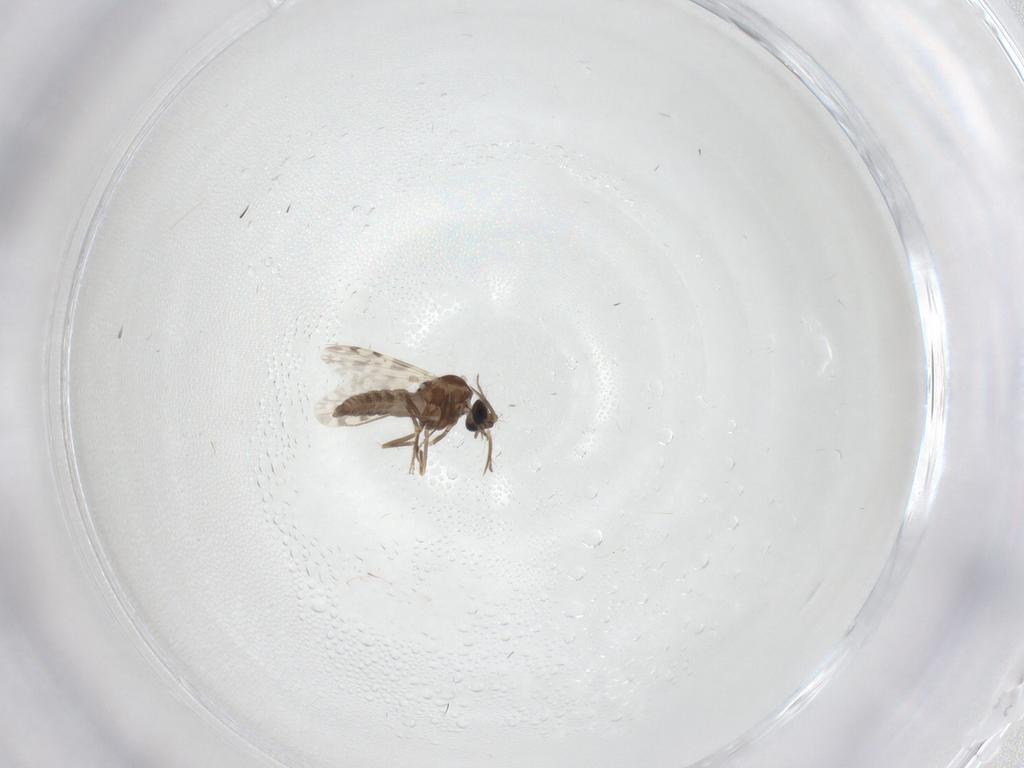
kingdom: Animalia
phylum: Arthropoda
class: Insecta
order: Diptera
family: Ceratopogonidae
